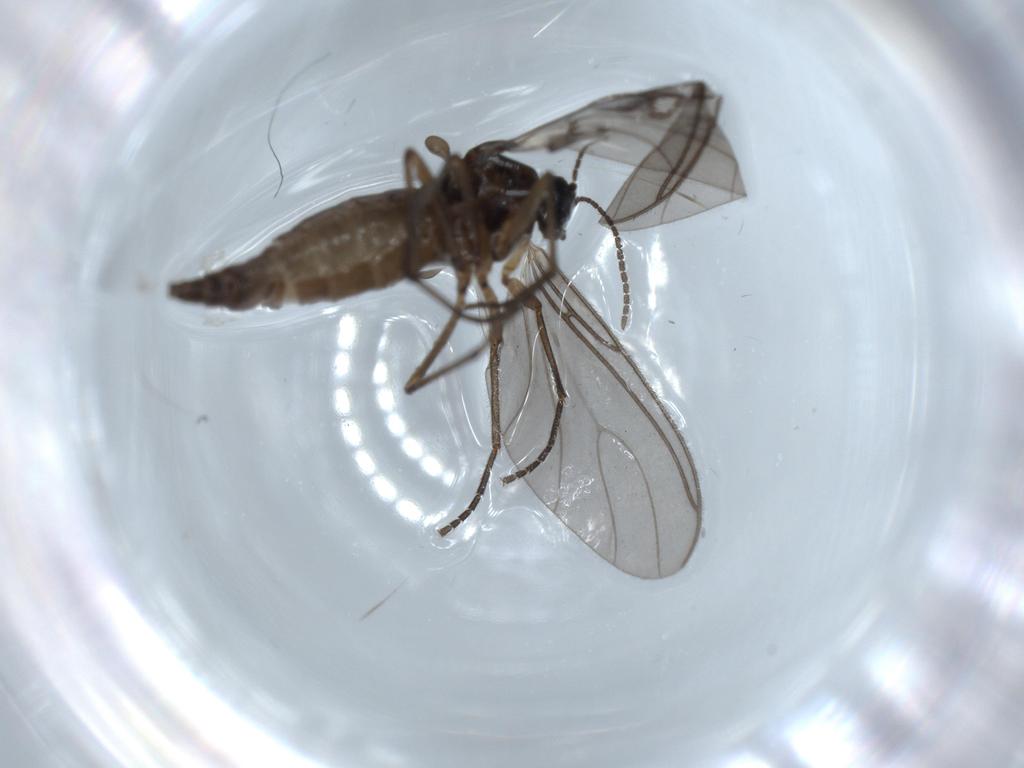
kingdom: Animalia
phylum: Arthropoda
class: Insecta
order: Diptera
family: Sciaridae
